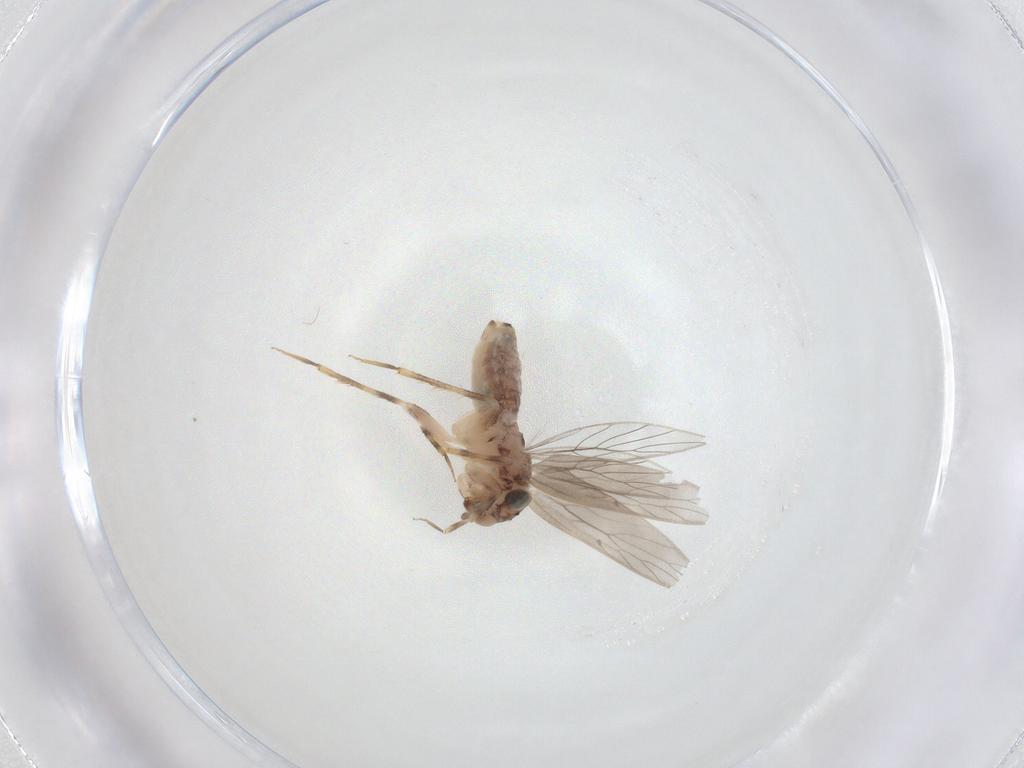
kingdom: Animalia
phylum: Arthropoda
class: Insecta
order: Psocodea
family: Lepidopsocidae
